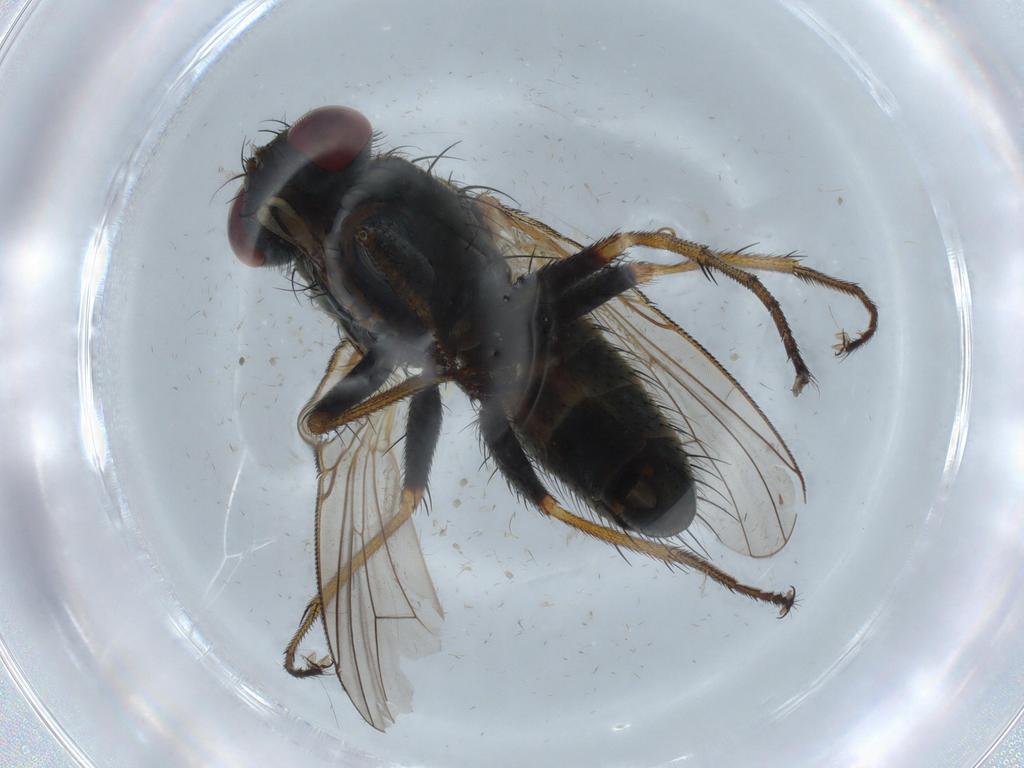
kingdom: Animalia
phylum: Arthropoda
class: Insecta
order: Diptera
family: Muscidae
